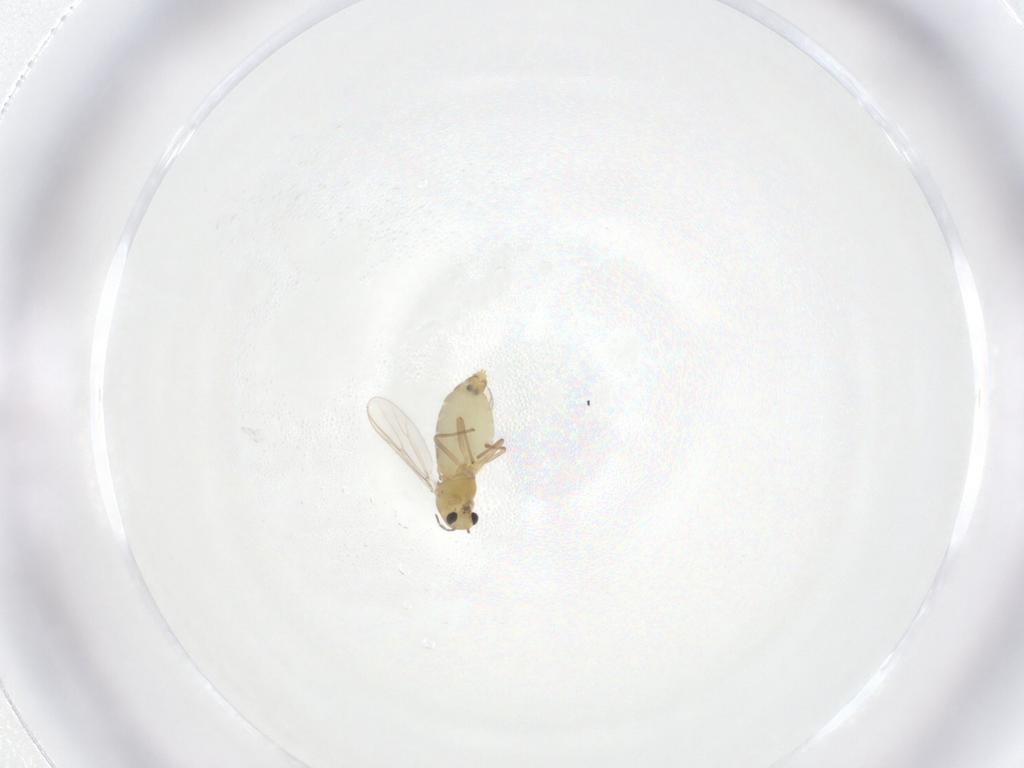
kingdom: Animalia
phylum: Arthropoda
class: Insecta
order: Diptera
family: Chironomidae
